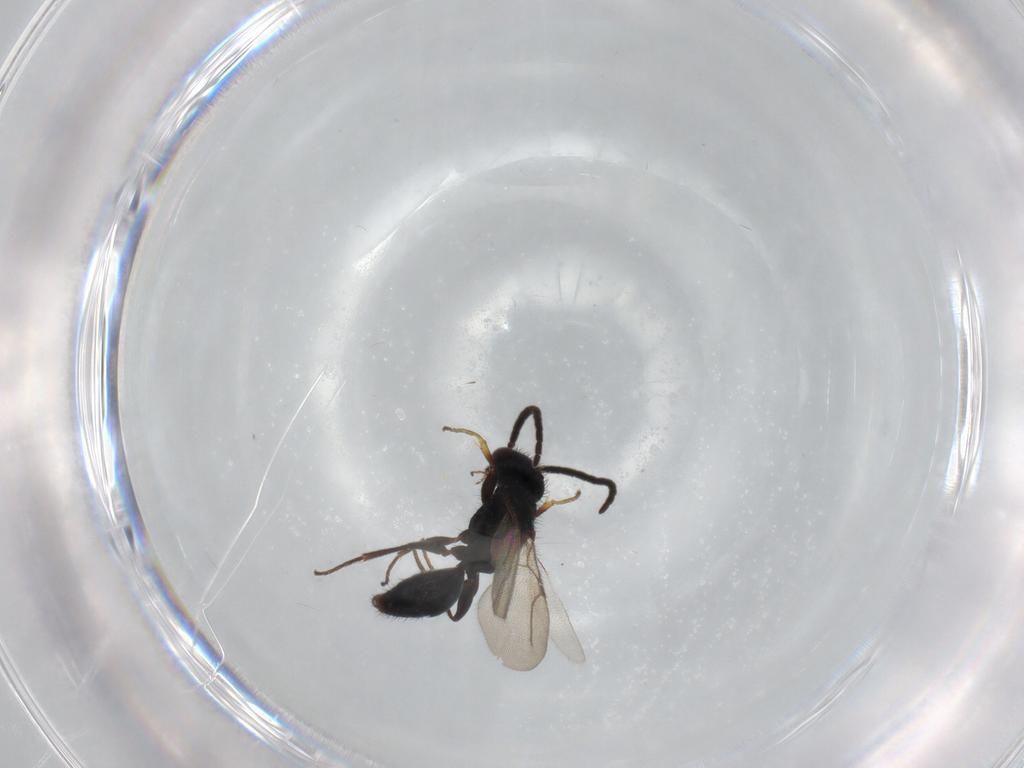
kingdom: Animalia
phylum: Arthropoda
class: Insecta
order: Hymenoptera
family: Bethylidae
